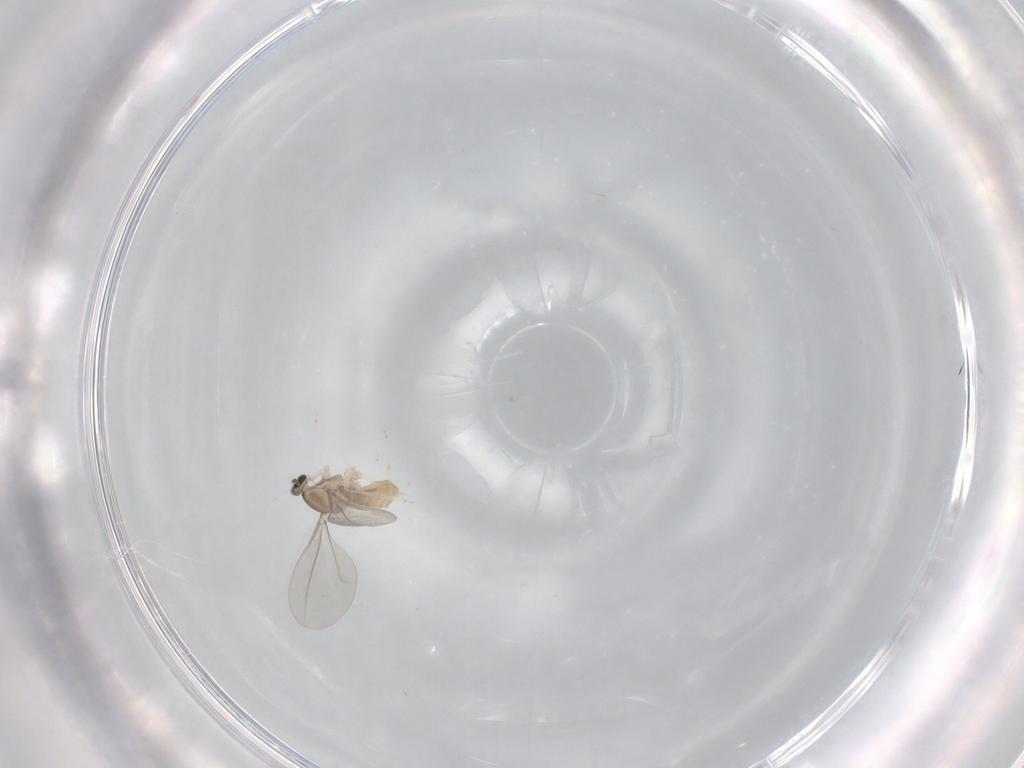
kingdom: Animalia
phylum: Arthropoda
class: Insecta
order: Diptera
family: Cecidomyiidae
